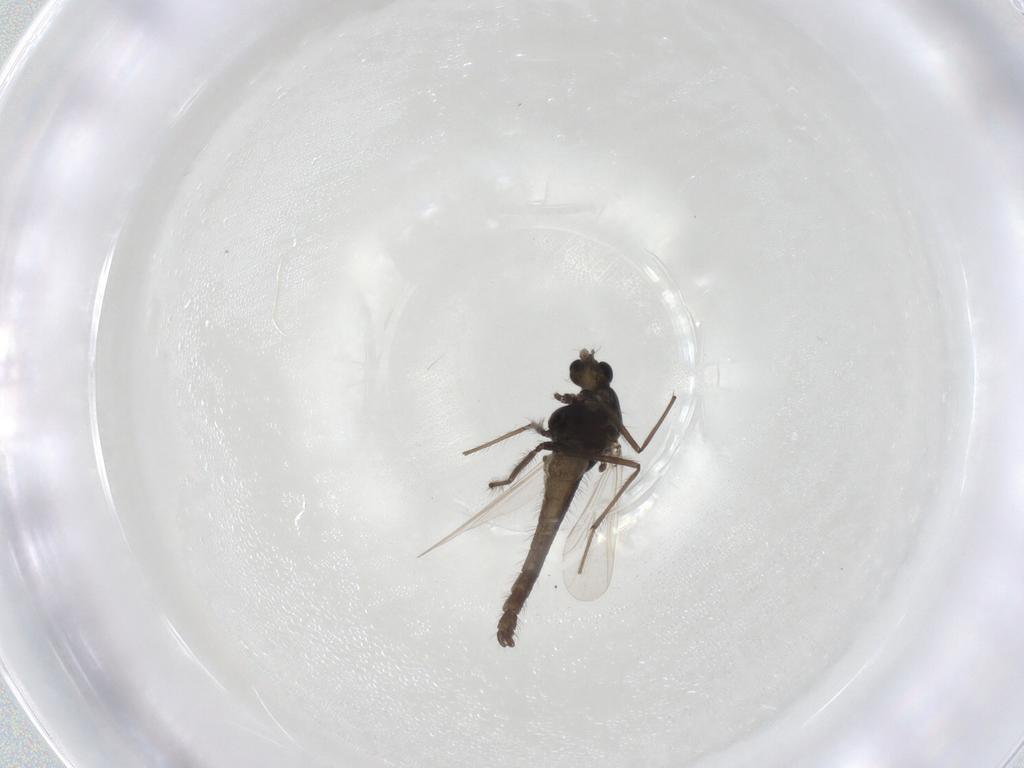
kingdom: Animalia
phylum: Arthropoda
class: Insecta
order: Diptera
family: Chironomidae
